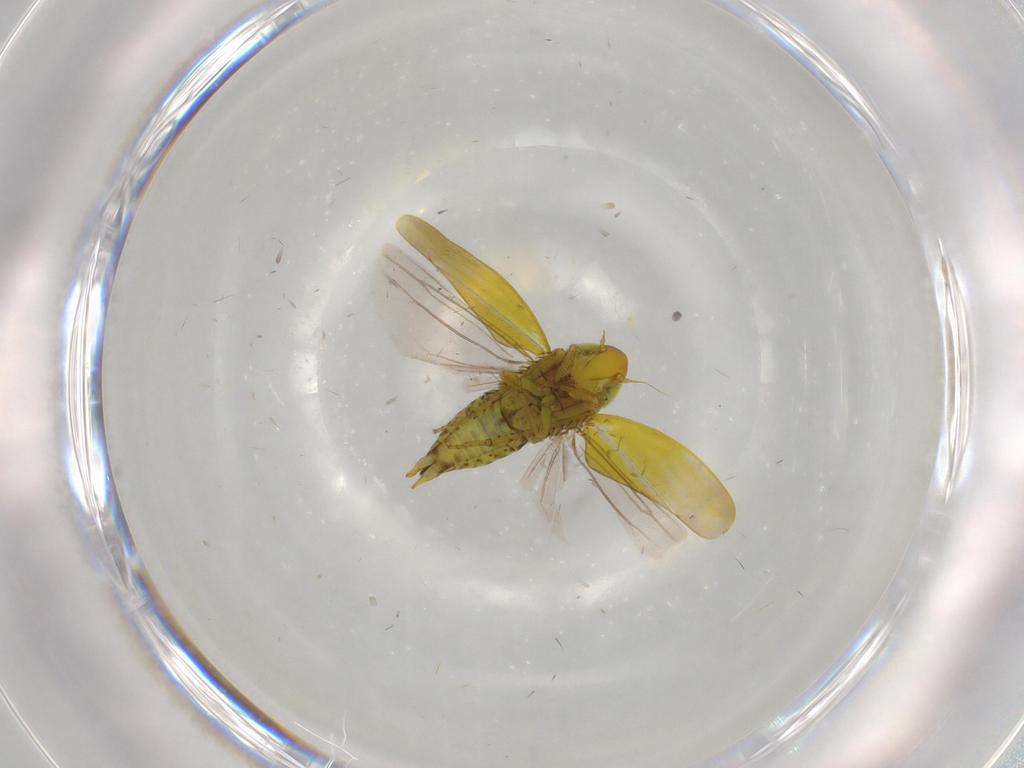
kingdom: Animalia
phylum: Arthropoda
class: Insecta
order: Hemiptera
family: Cicadellidae
